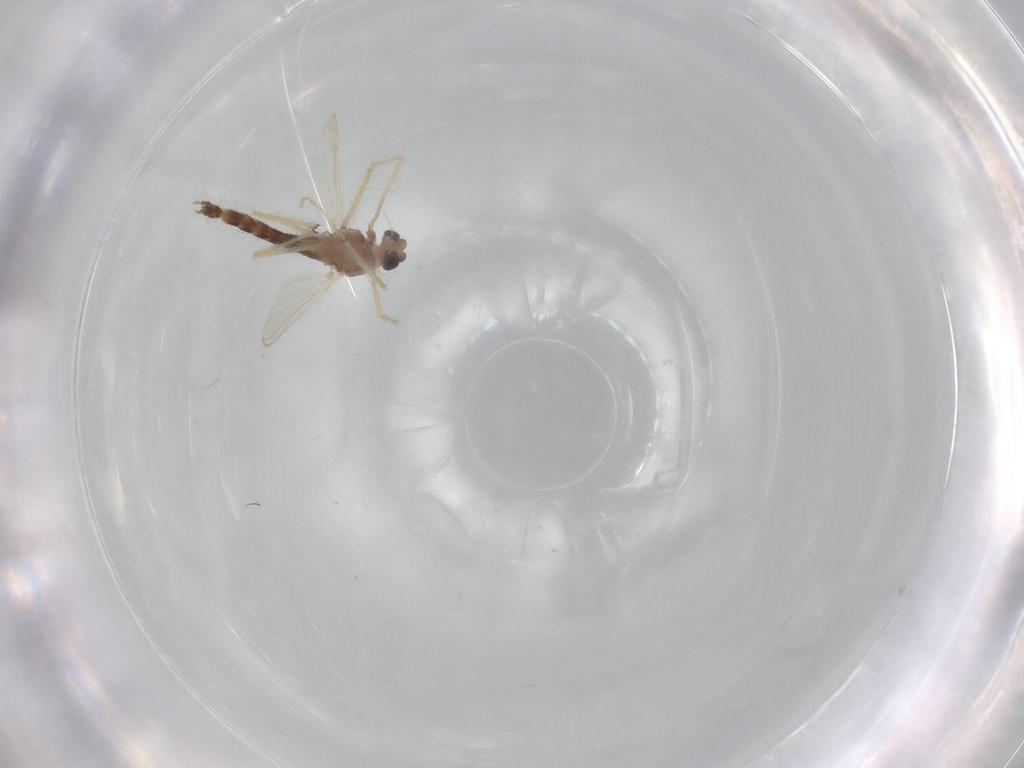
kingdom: Animalia
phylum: Arthropoda
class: Insecta
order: Diptera
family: Chironomidae
